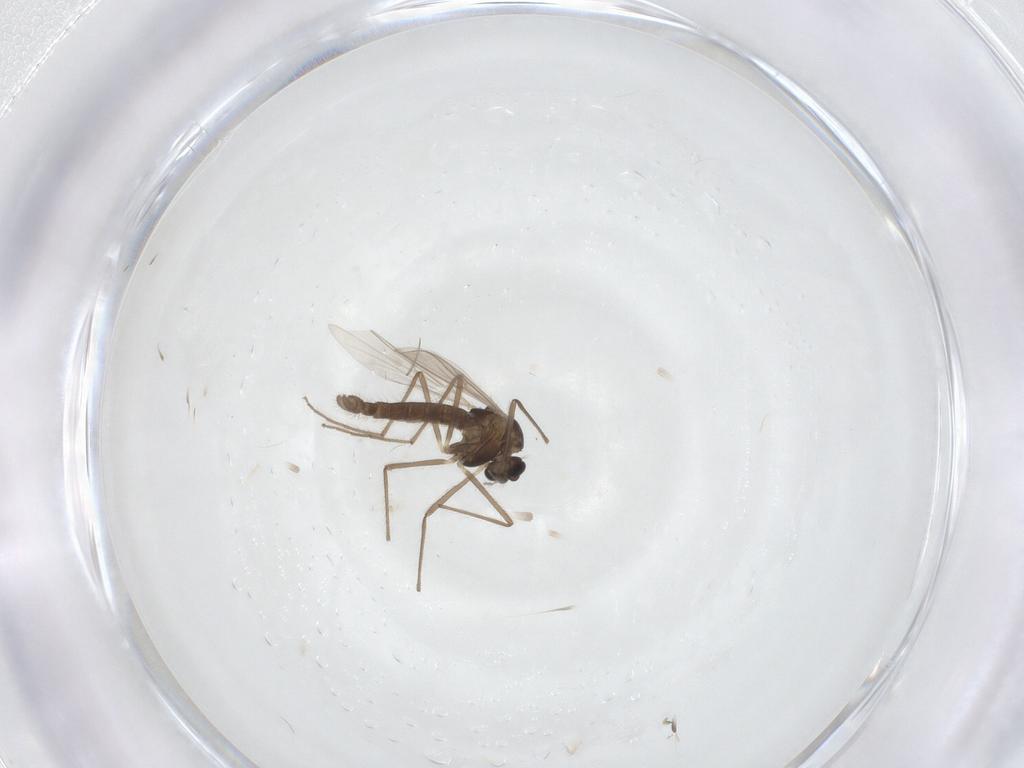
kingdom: Animalia
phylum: Arthropoda
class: Insecta
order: Diptera
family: Chironomidae
